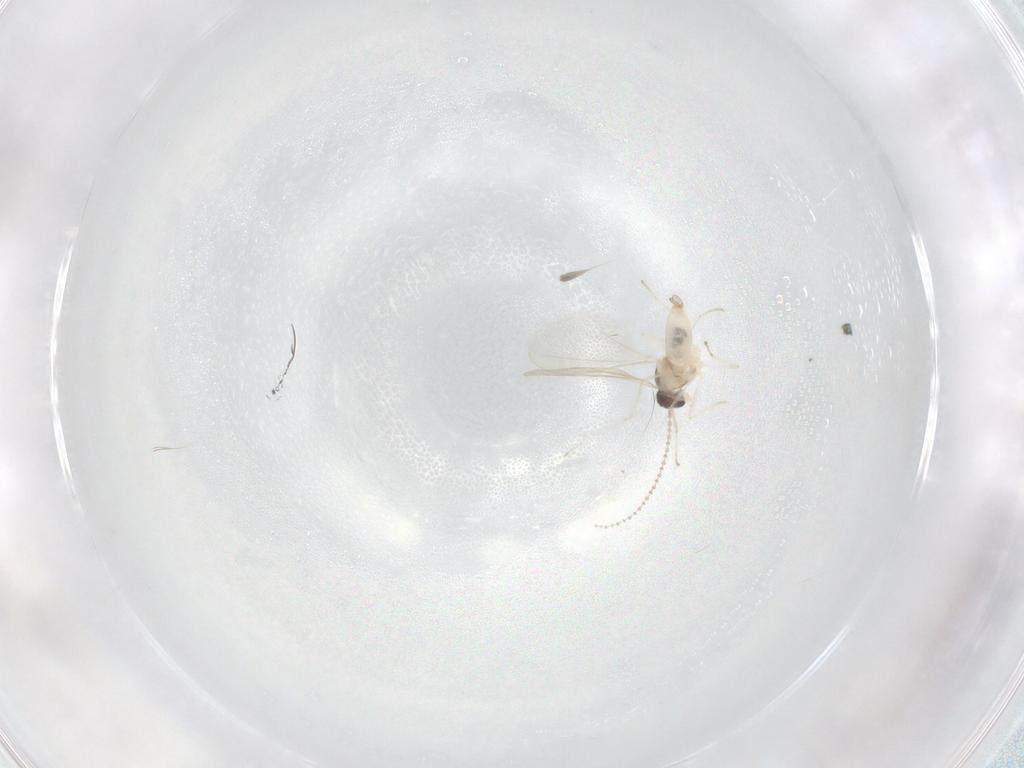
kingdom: Animalia
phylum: Arthropoda
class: Insecta
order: Diptera
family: Cecidomyiidae
